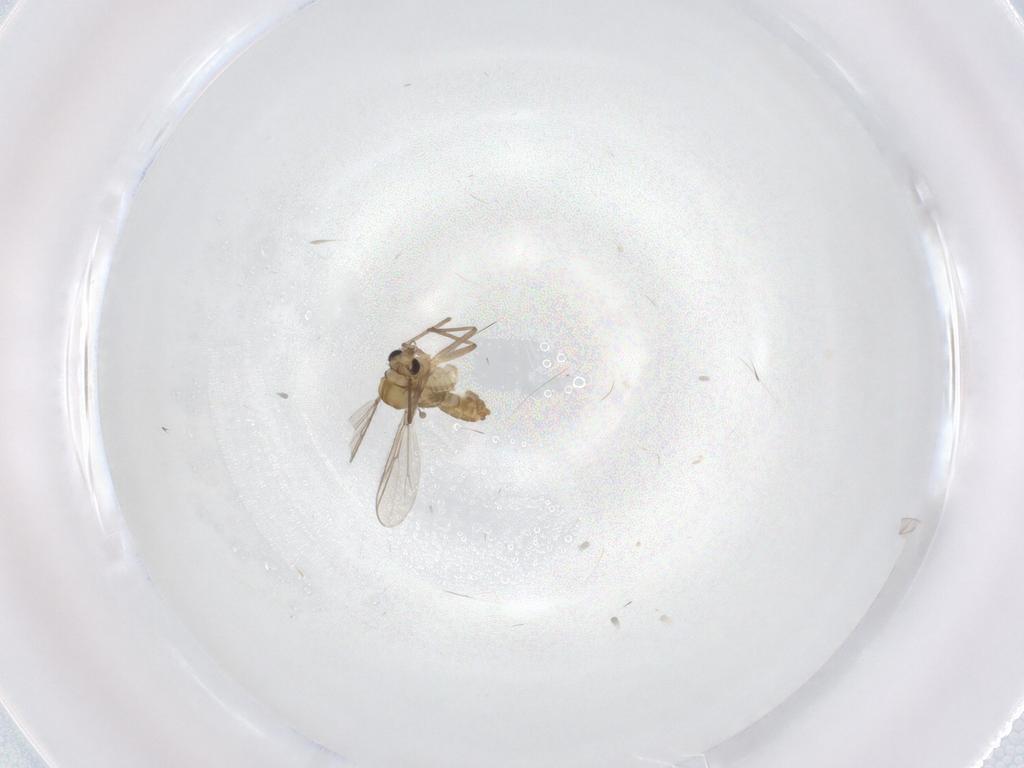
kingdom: Animalia
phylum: Arthropoda
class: Insecta
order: Diptera
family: Chironomidae
